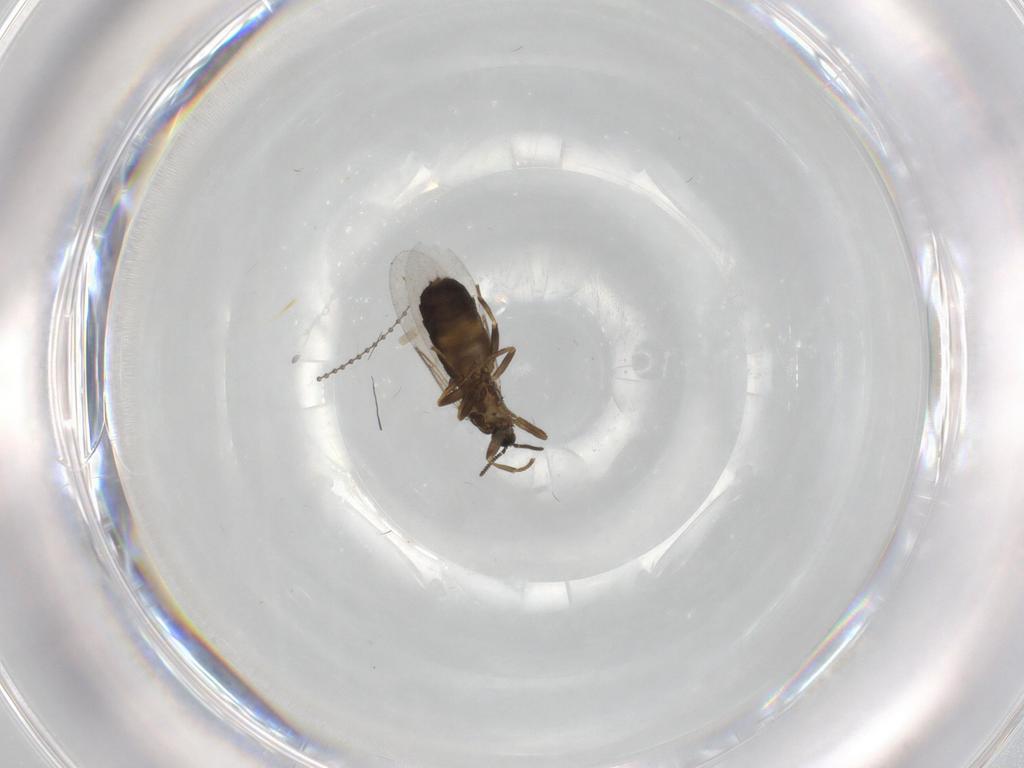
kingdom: Animalia
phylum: Arthropoda
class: Insecta
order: Diptera
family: Scatopsidae
